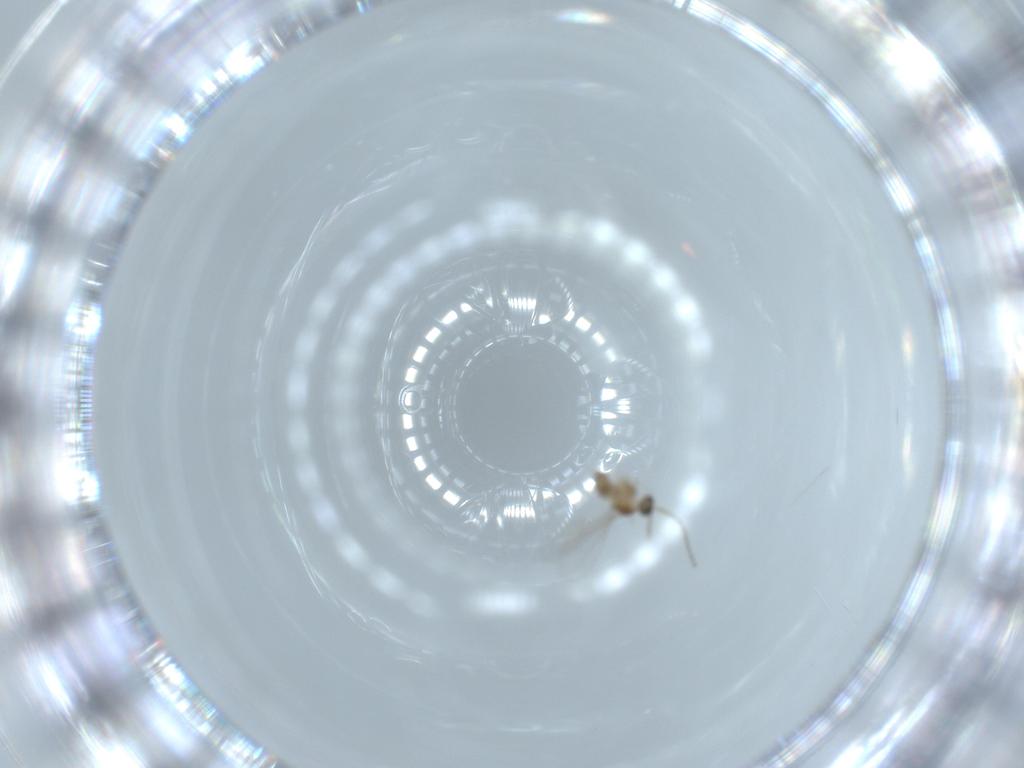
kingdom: Animalia
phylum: Arthropoda
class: Insecta
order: Diptera
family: Cecidomyiidae
